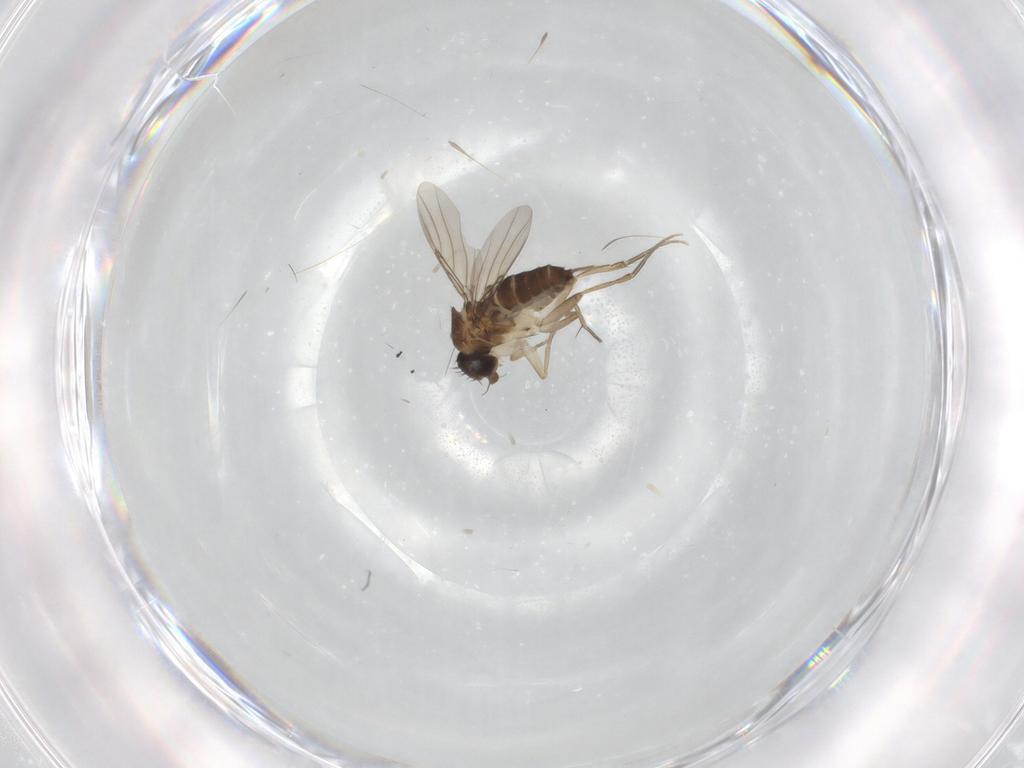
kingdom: Animalia
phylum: Arthropoda
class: Insecta
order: Diptera
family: Phoridae
